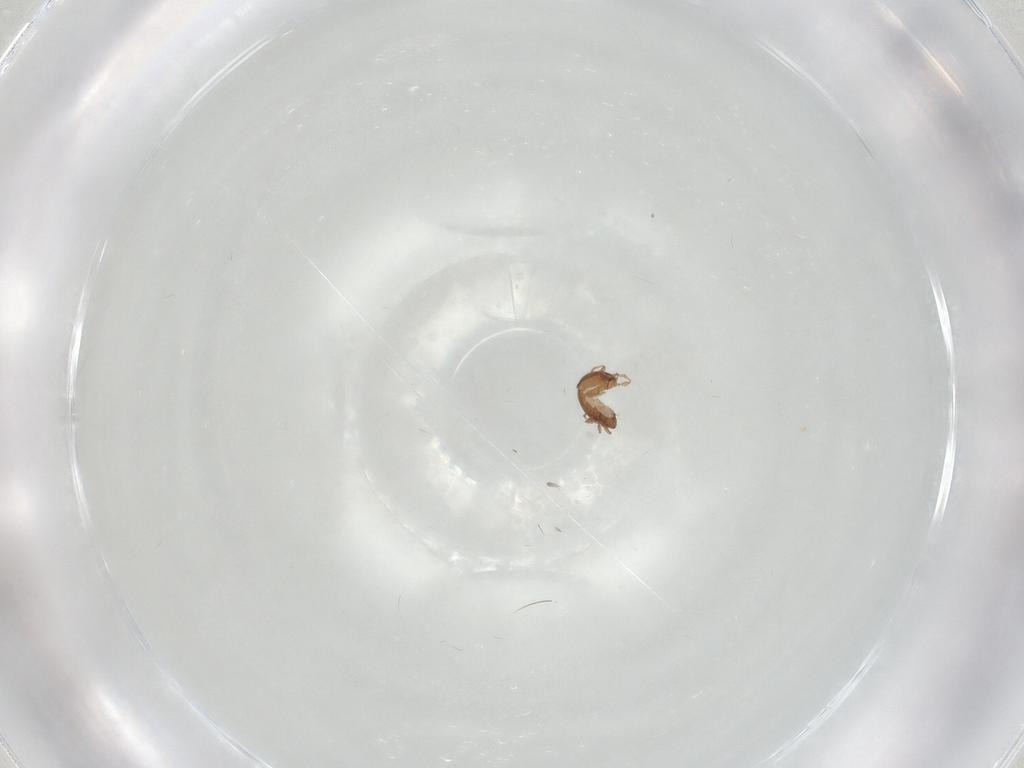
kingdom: Animalia
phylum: Arthropoda
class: Arachnida
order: Sarcoptiformes
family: Oribatulidae
